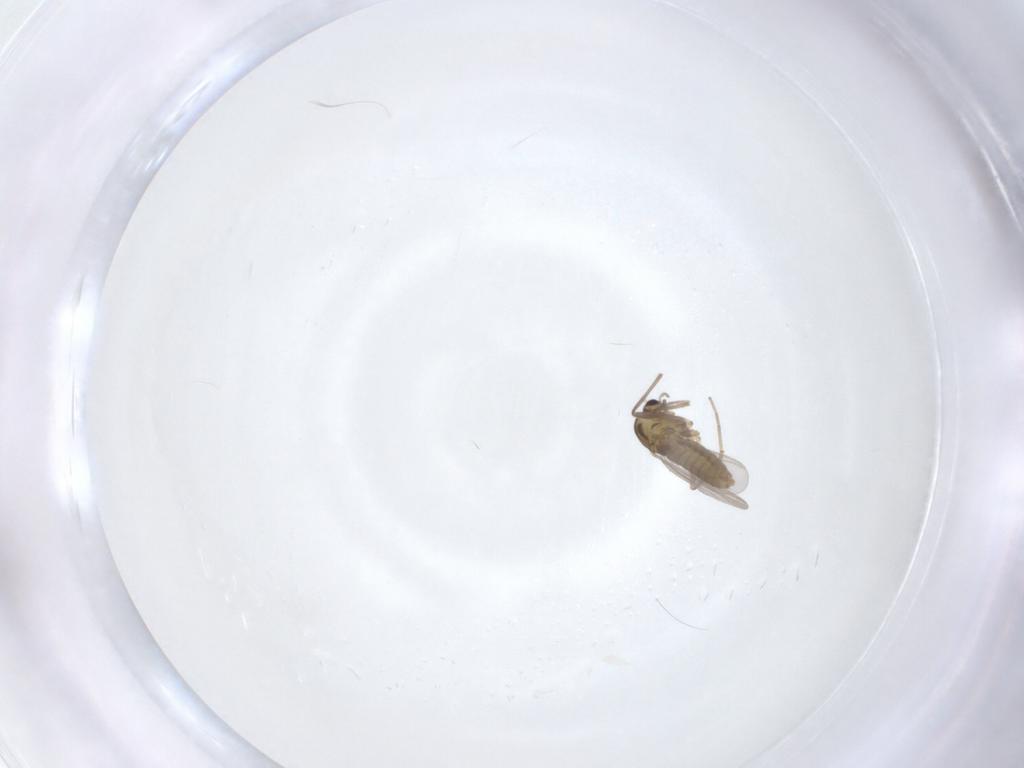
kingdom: Animalia
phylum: Arthropoda
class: Insecta
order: Diptera
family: Chironomidae
